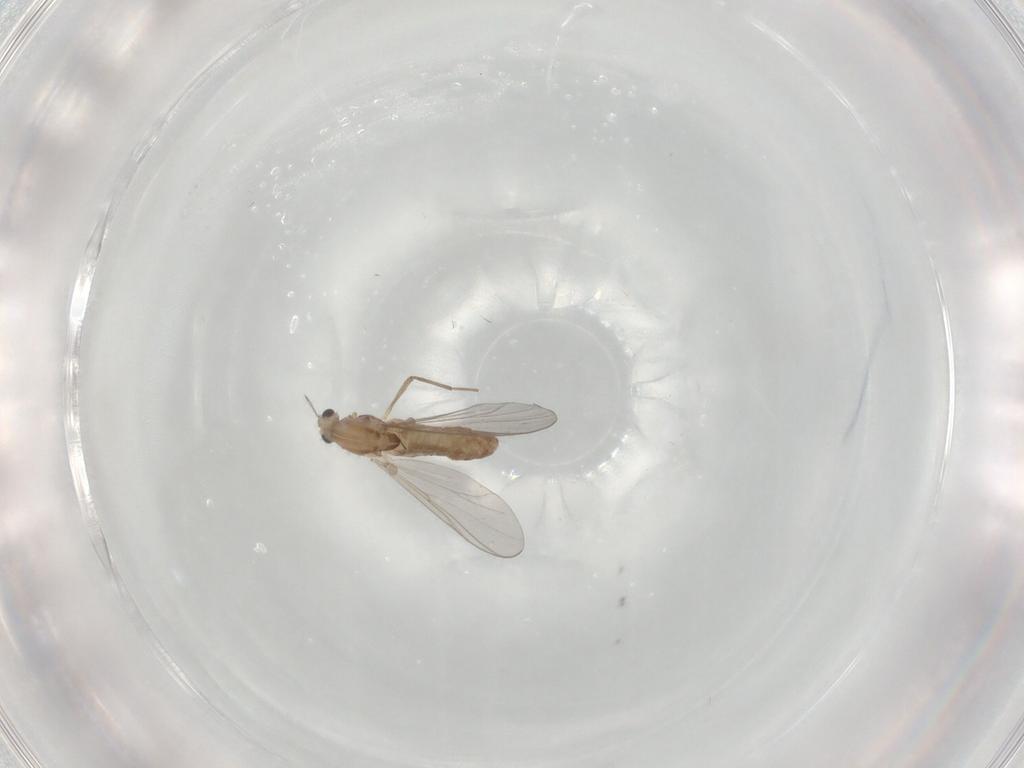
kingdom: Animalia
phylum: Arthropoda
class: Insecta
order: Diptera
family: Chironomidae
